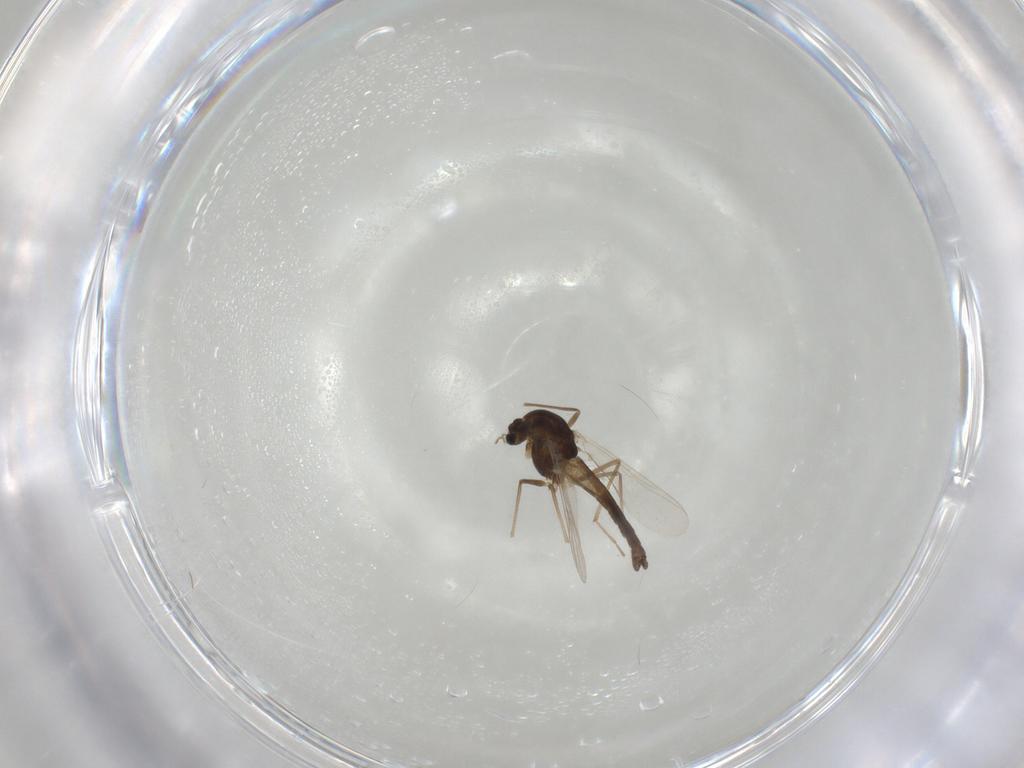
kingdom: Animalia
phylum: Arthropoda
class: Insecta
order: Diptera
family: Chironomidae
